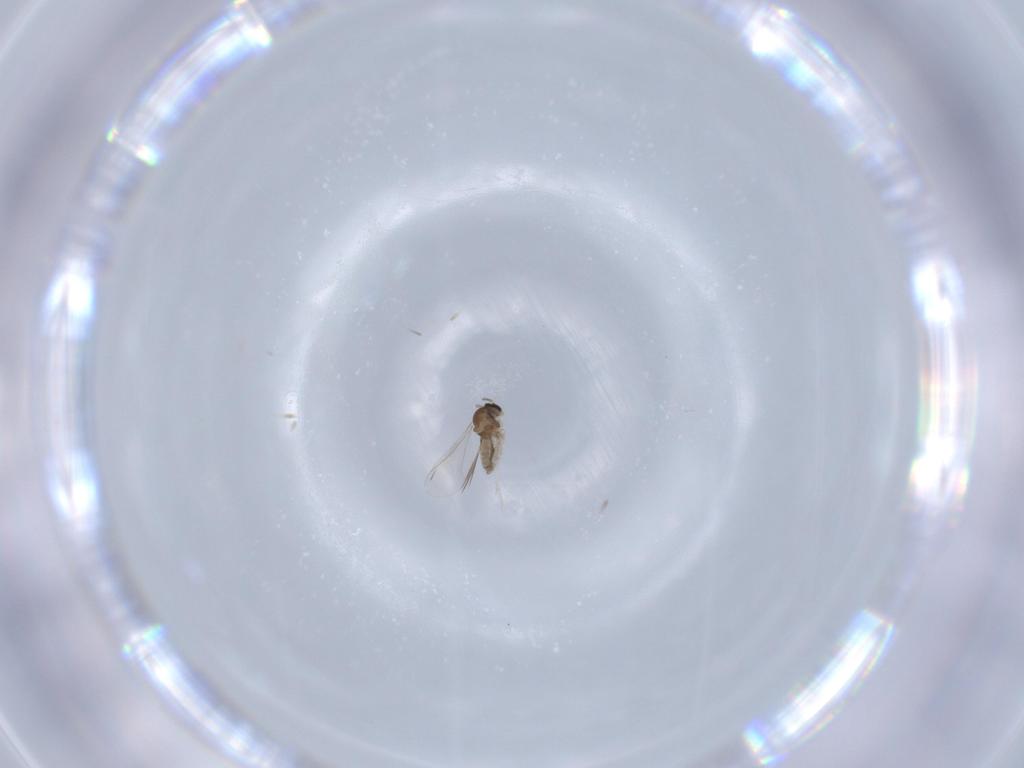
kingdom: Animalia
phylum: Arthropoda
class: Insecta
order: Diptera
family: Cecidomyiidae
